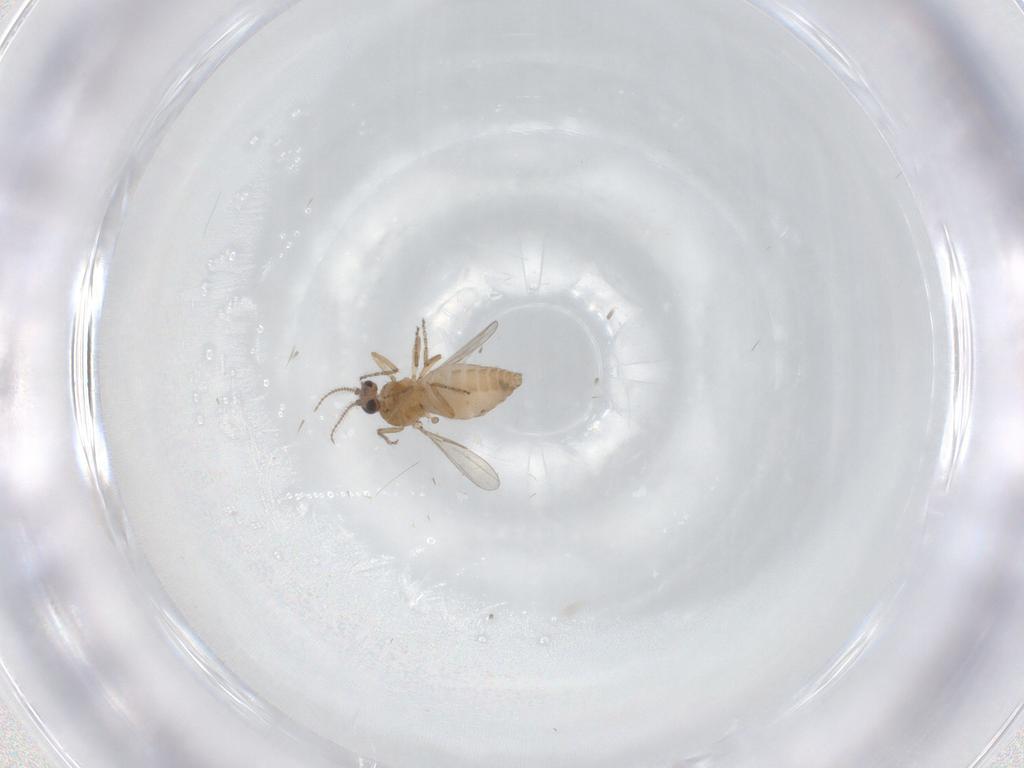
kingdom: Animalia
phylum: Arthropoda
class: Insecta
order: Diptera
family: Ceratopogonidae
